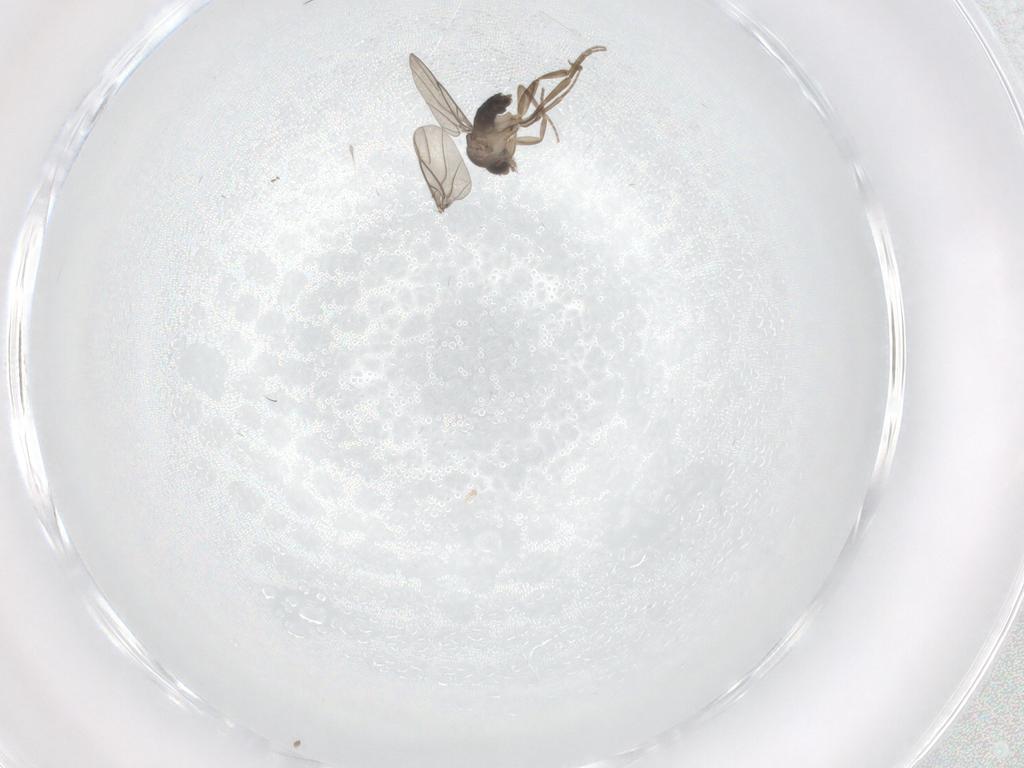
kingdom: Animalia
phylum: Arthropoda
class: Insecta
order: Diptera
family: Phoridae
